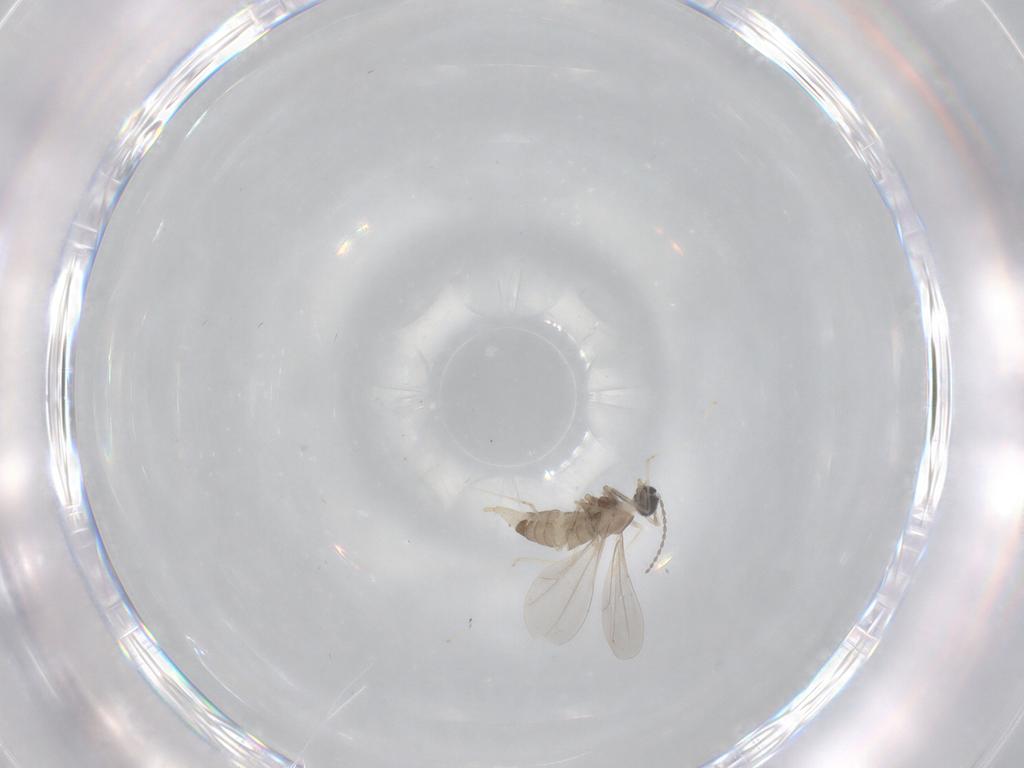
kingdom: Animalia
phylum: Arthropoda
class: Insecta
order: Diptera
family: Cecidomyiidae
